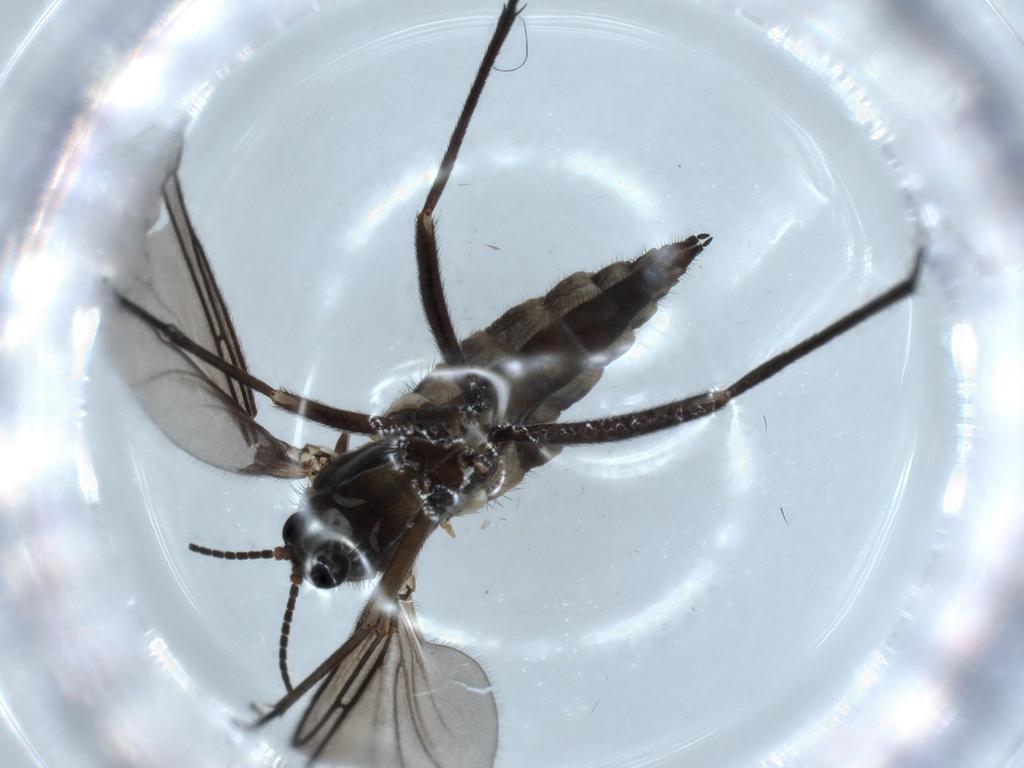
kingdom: Animalia
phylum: Arthropoda
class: Insecta
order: Diptera
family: Sciaridae
